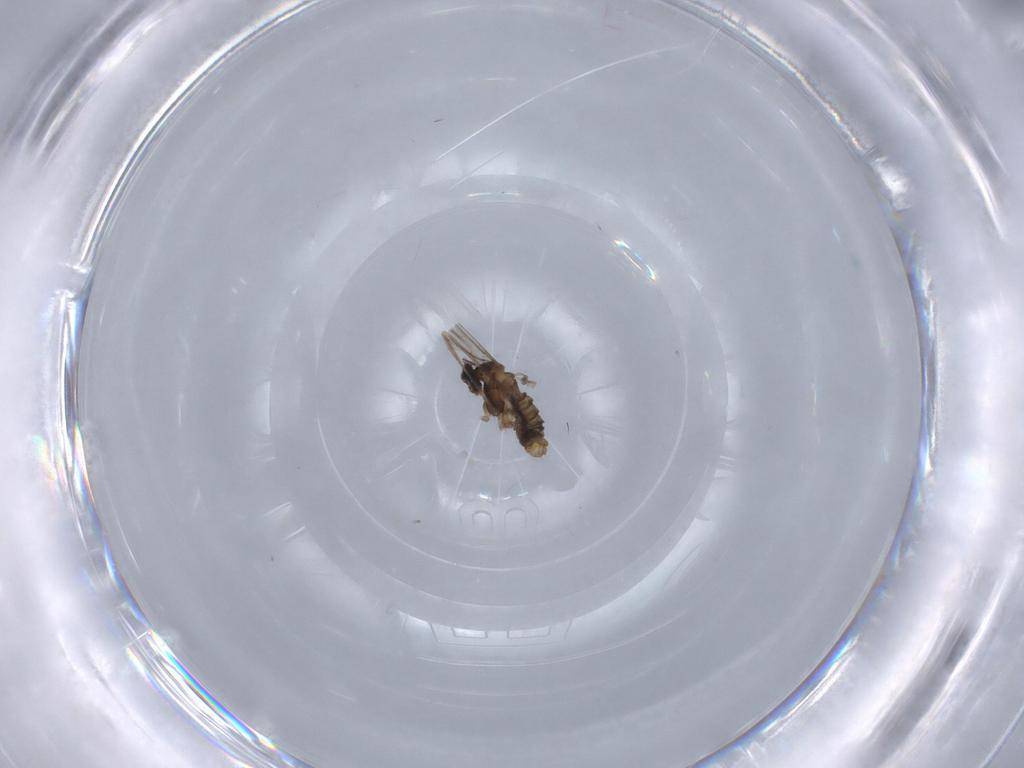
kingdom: Animalia
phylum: Arthropoda
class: Insecta
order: Diptera
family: Cecidomyiidae
